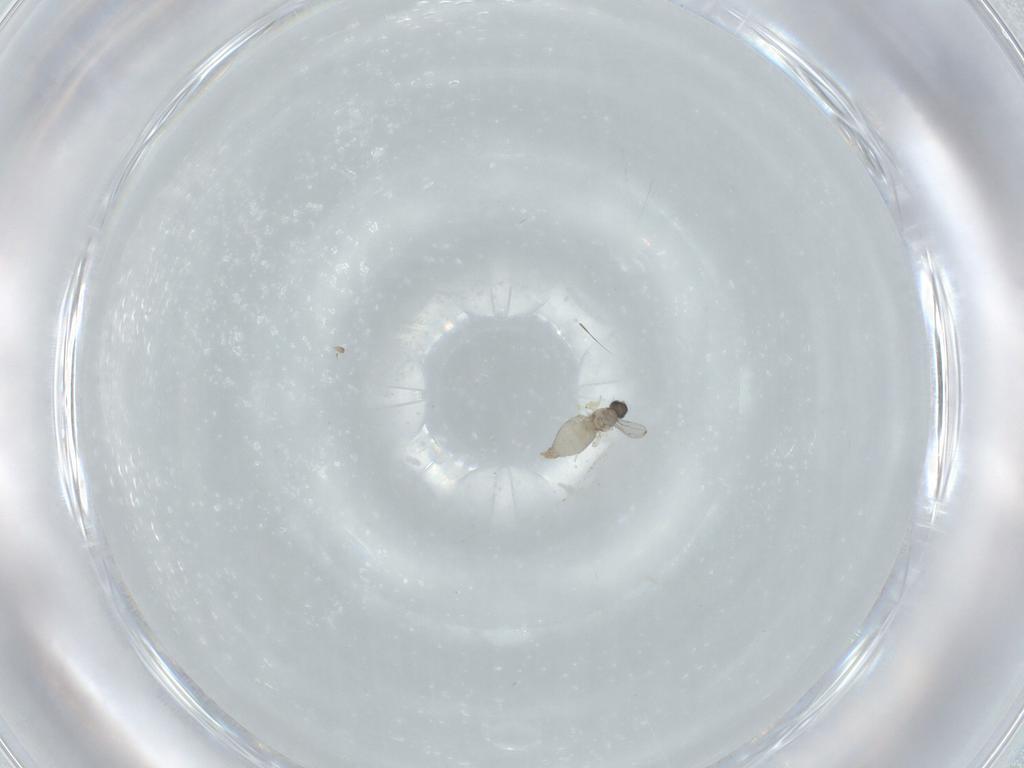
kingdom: Animalia
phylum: Arthropoda
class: Insecta
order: Diptera
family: Cecidomyiidae
